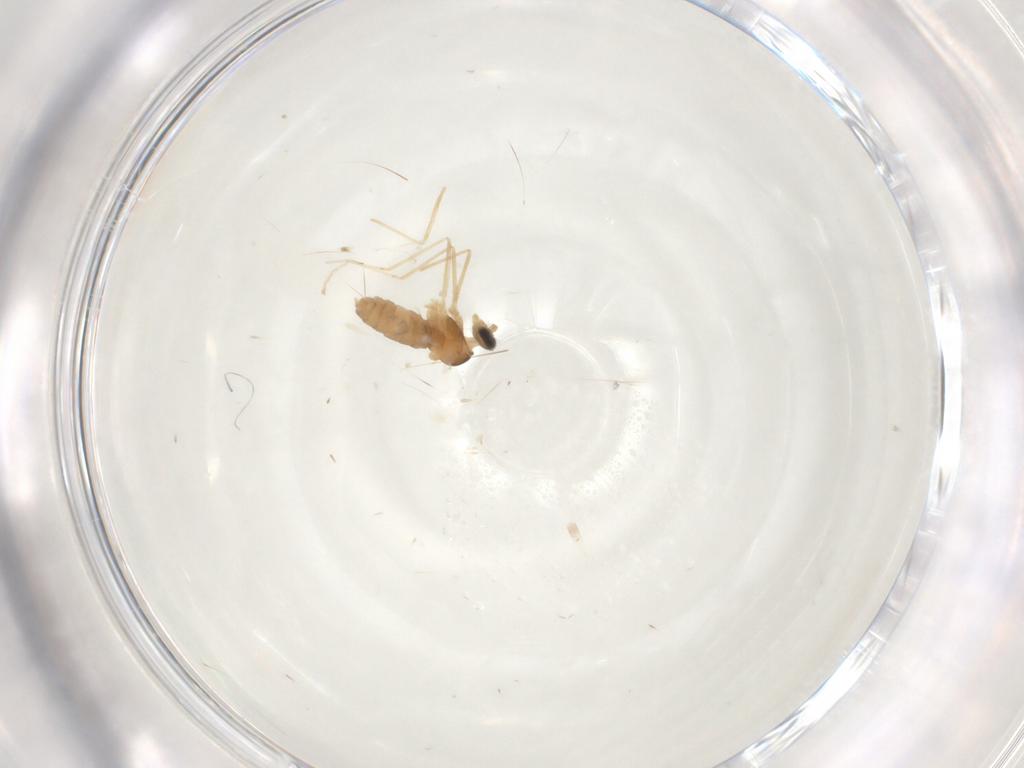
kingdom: Animalia
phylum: Arthropoda
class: Insecta
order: Diptera
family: Cecidomyiidae
